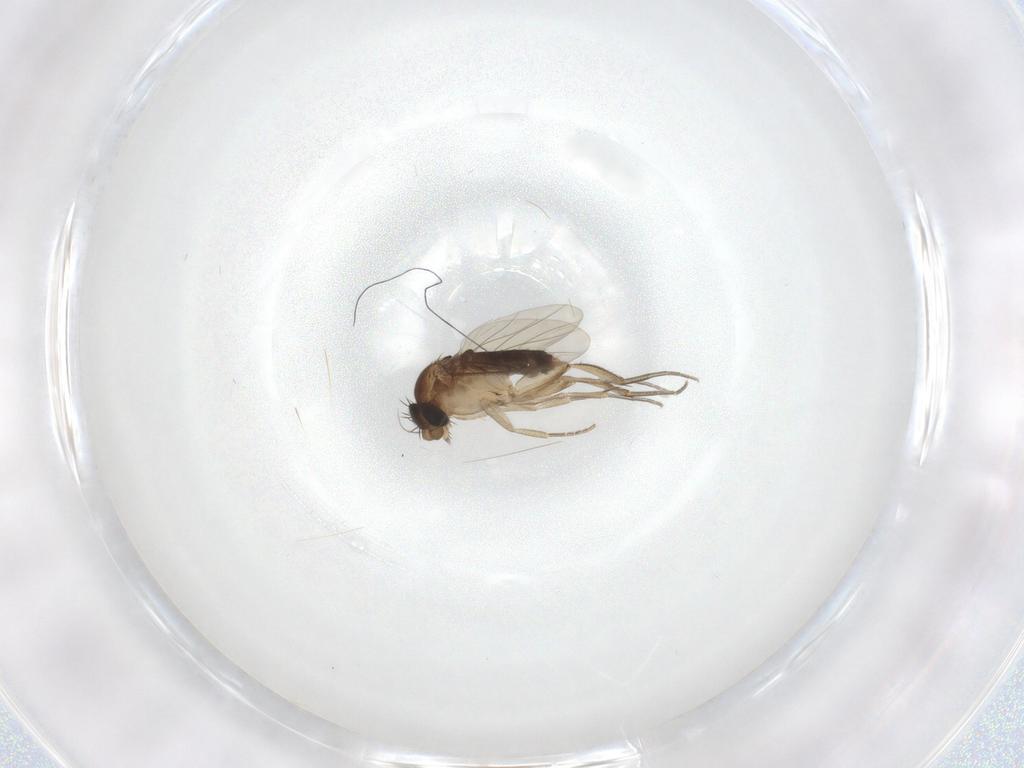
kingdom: Animalia
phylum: Arthropoda
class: Insecta
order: Diptera
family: Phoridae
